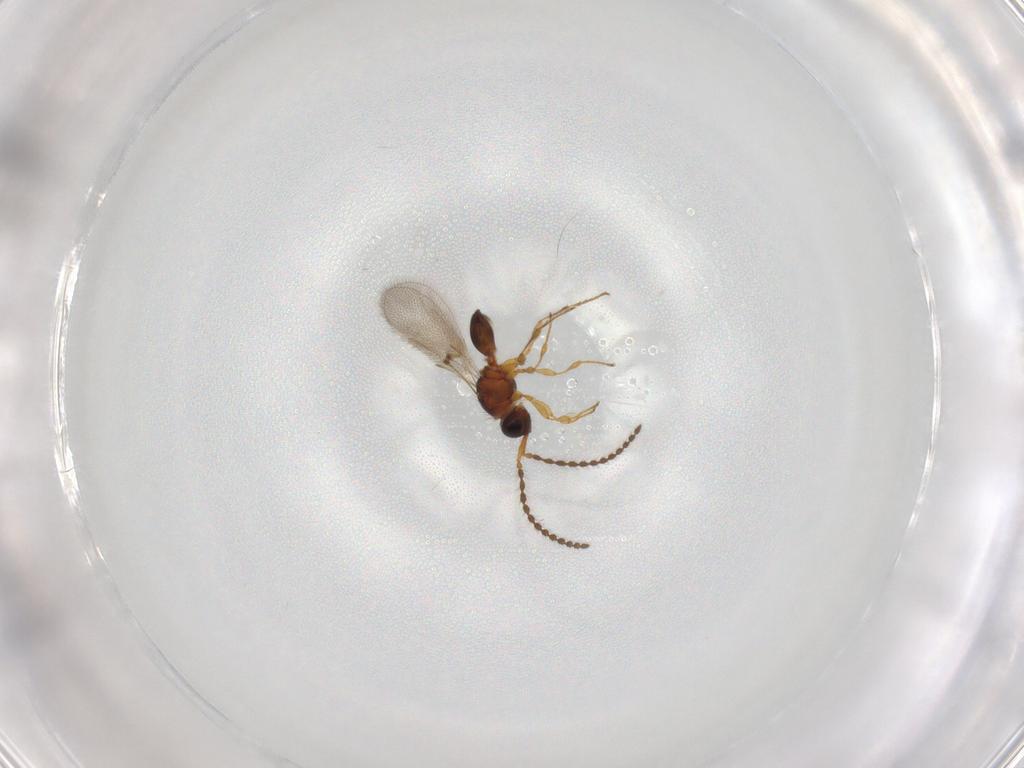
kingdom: Animalia
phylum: Arthropoda
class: Insecta
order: Hymenoptera
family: Diapriidae
